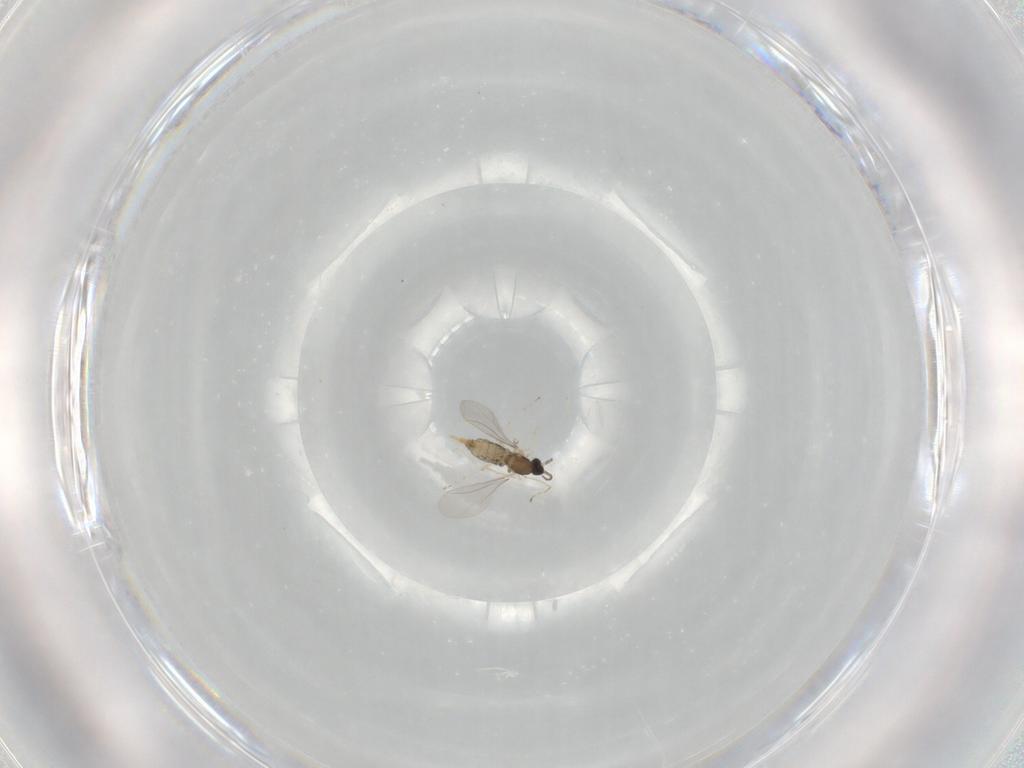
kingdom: Animalia
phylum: Arthropoda
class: Insecta
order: Diptera
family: Cecidomyiidae
